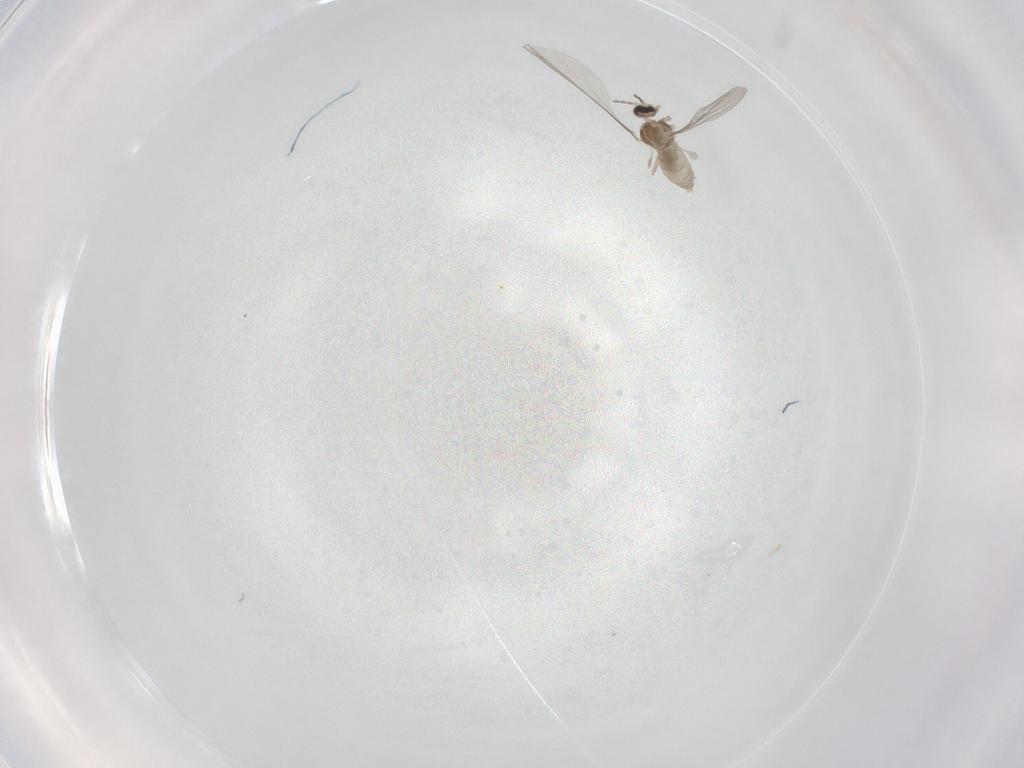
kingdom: Animalia
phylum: Arthropoda
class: Insecta
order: Diptera
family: Cecidomyiidae
